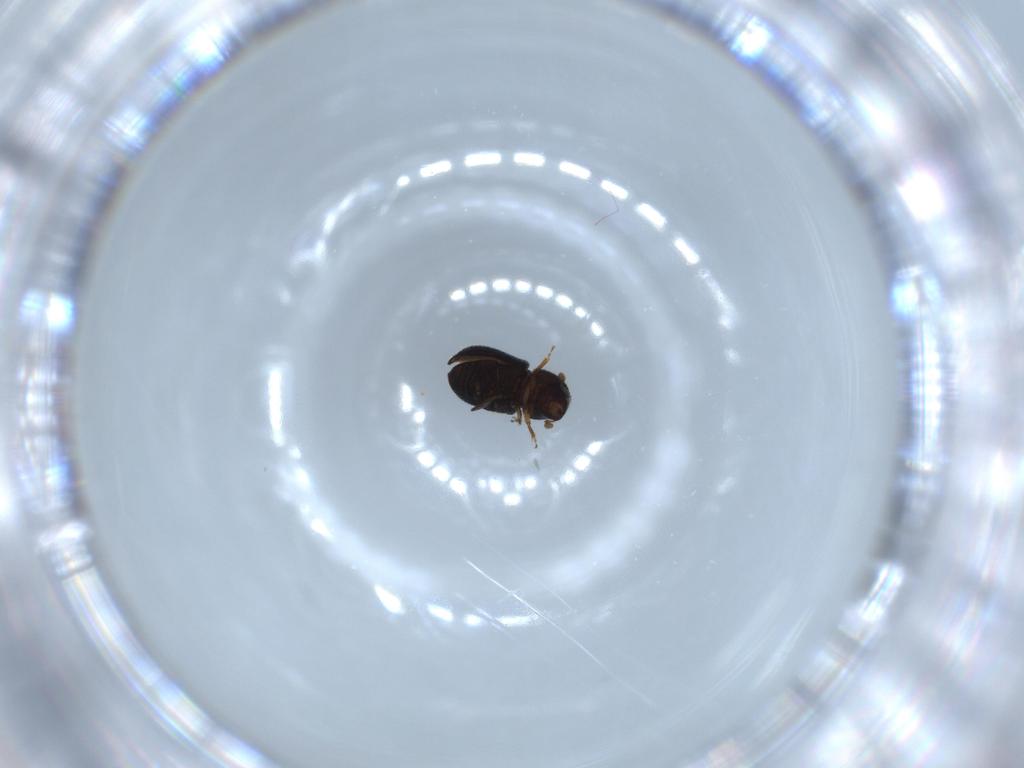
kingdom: Animalia
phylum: Arthropoda
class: Insecta
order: Coleoptera
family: Curculionidae
